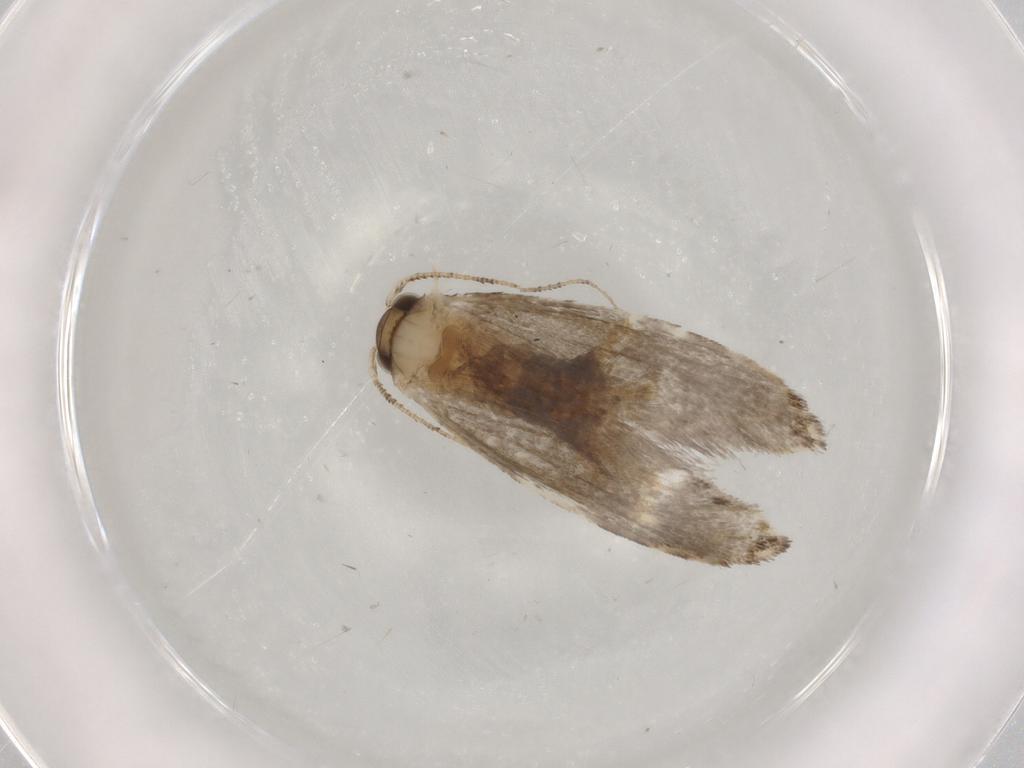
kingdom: Animalia
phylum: Arthropoda
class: Insecta
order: Lepidoptera
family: Tineidae
